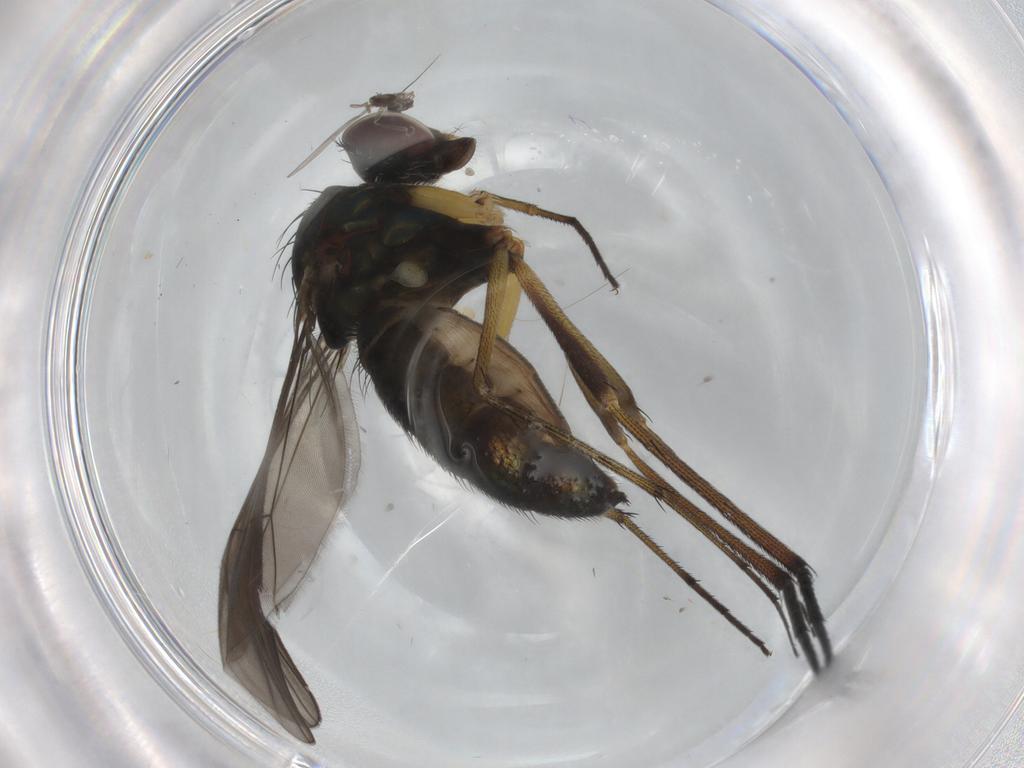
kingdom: Animalia
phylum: Arthropoda
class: Insecta
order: Diptera
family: Dolichopodidae
